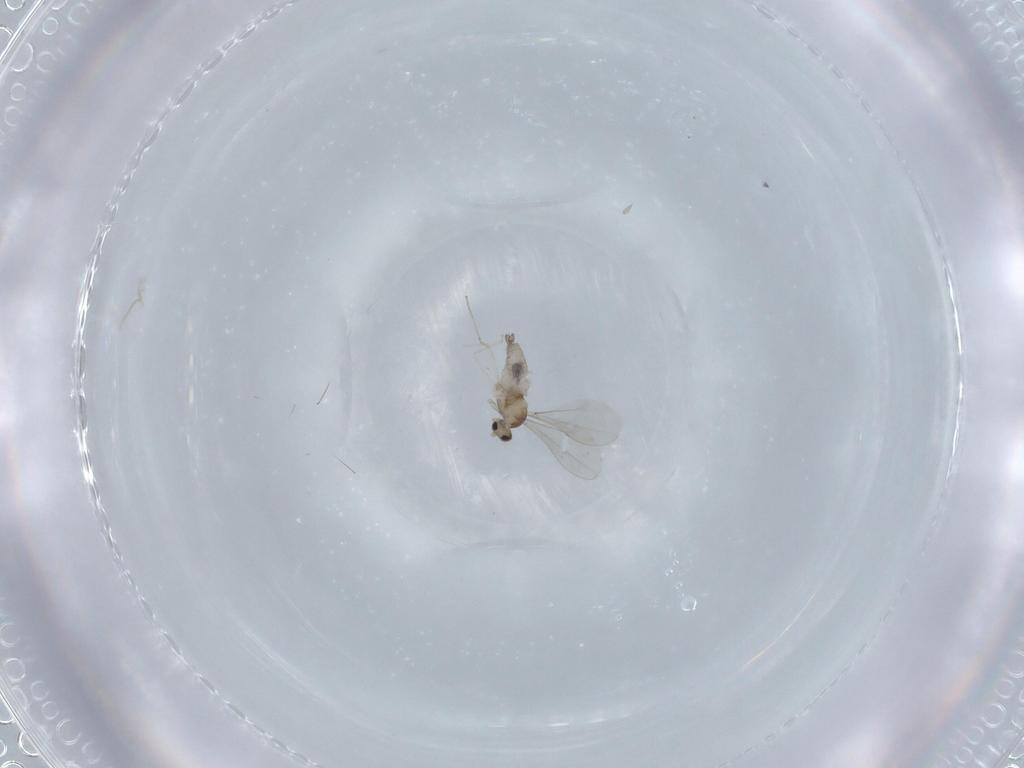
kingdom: Animalia
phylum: Arthropoda
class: Insecta
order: Diptera
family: Cecidomyiidae
